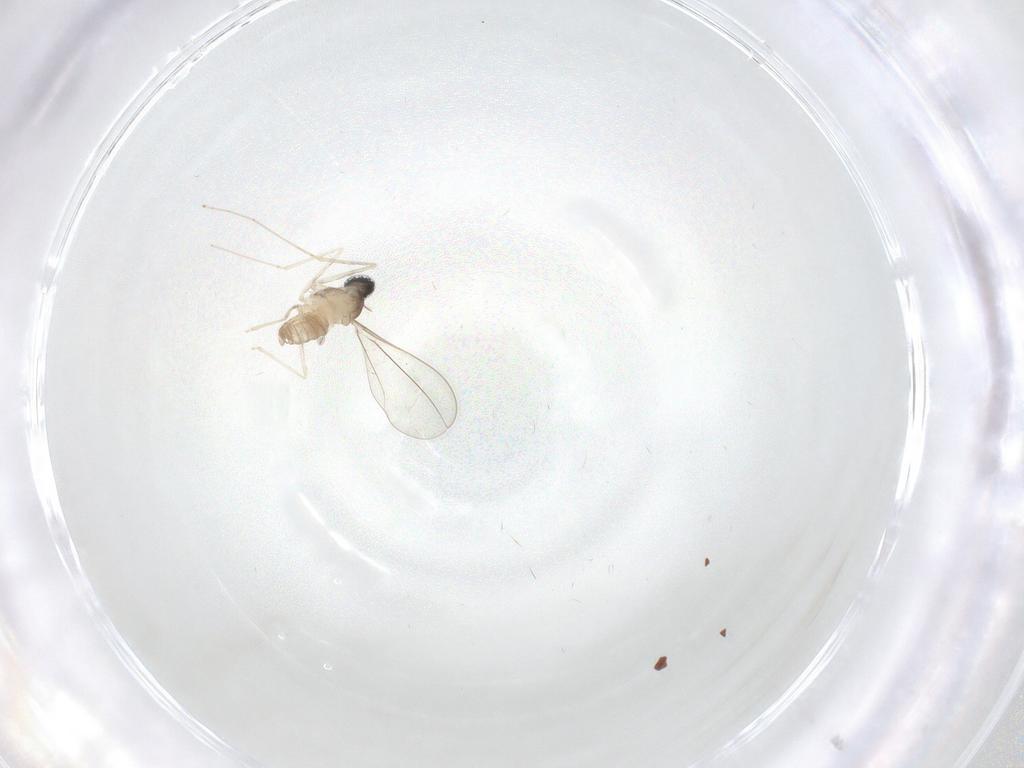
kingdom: Animalia
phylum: Arthropoda
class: Insecta
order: Diptera
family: Cecidomyiidae
